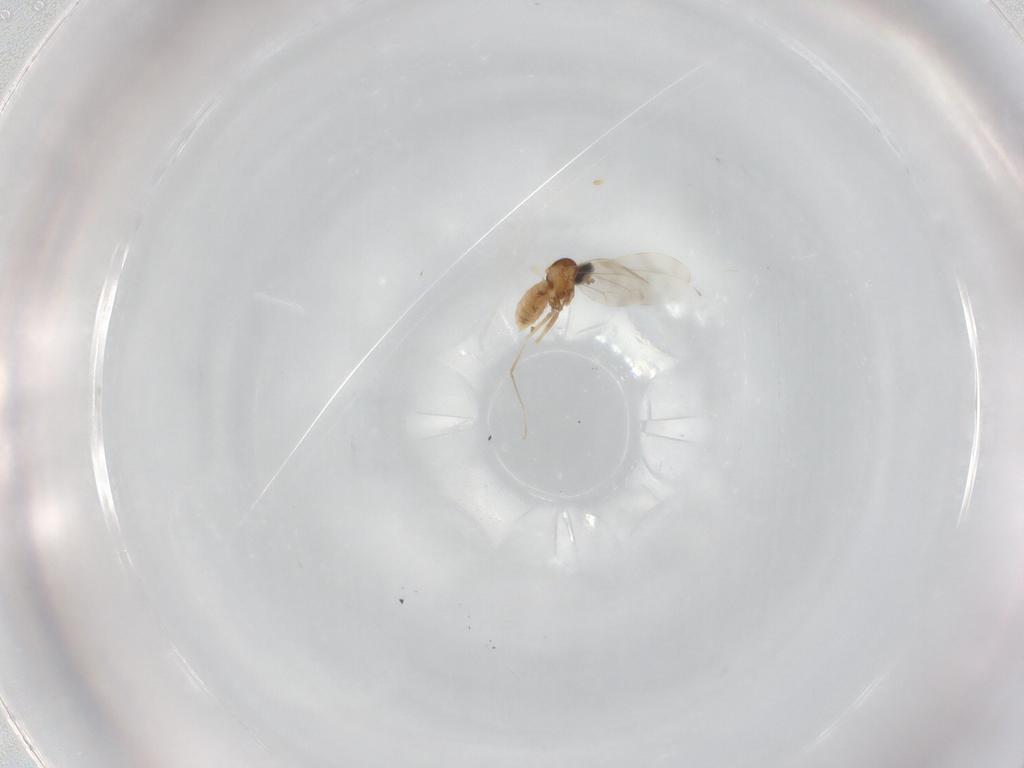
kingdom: Animalia
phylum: Arthropoda
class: Insecta
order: Diptera
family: Cecidomyiidae
